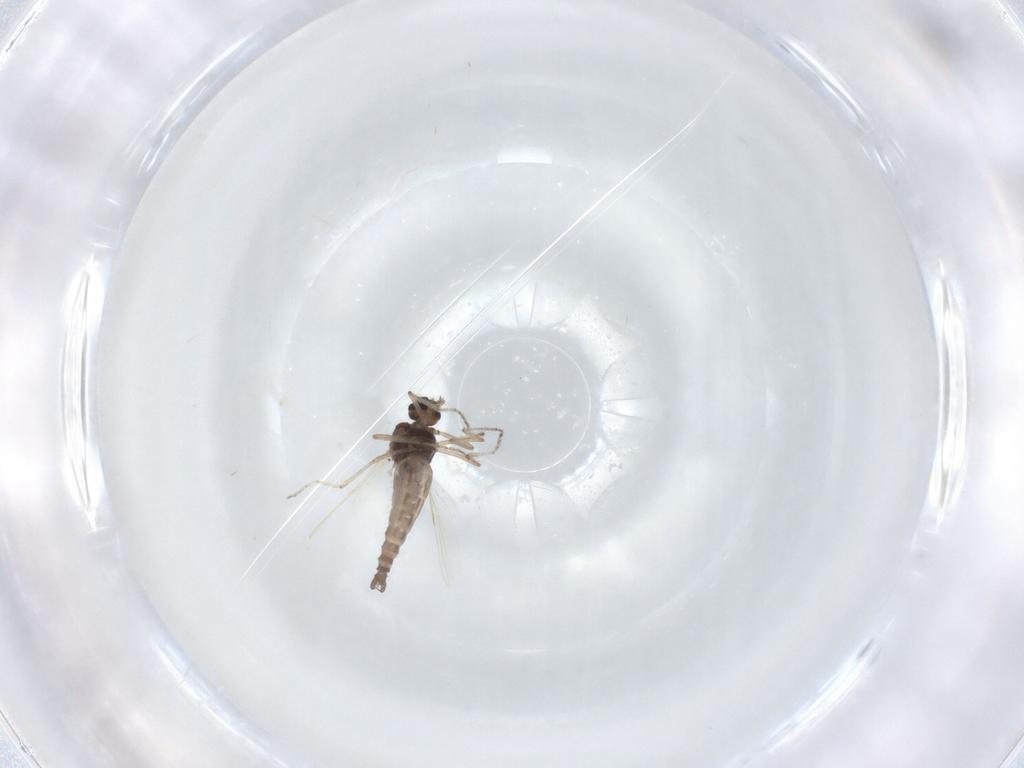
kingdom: Animalia
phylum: Arthropoda
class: Insecta
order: Diptera
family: Ceratopogonidae
